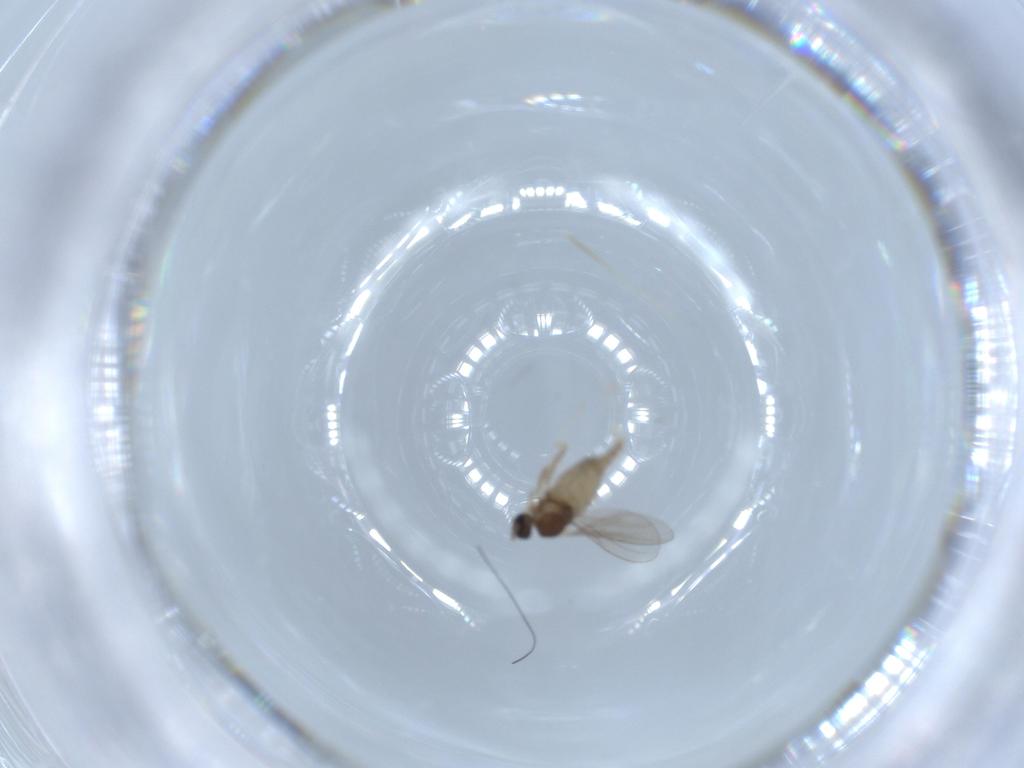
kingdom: Animalia
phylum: Arthropoda
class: Insecta
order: Diptera
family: Cecidomyiidae
